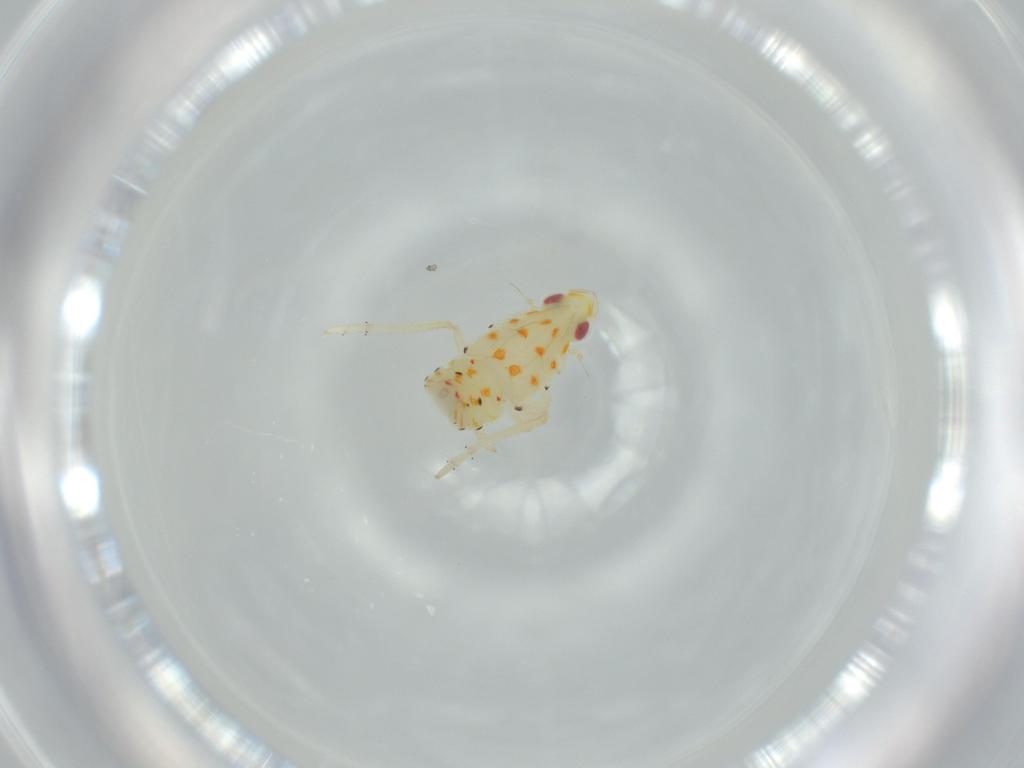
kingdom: Animalia
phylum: Arthropoda
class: Insecta
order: Hemiptera
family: Tropiduchidae
